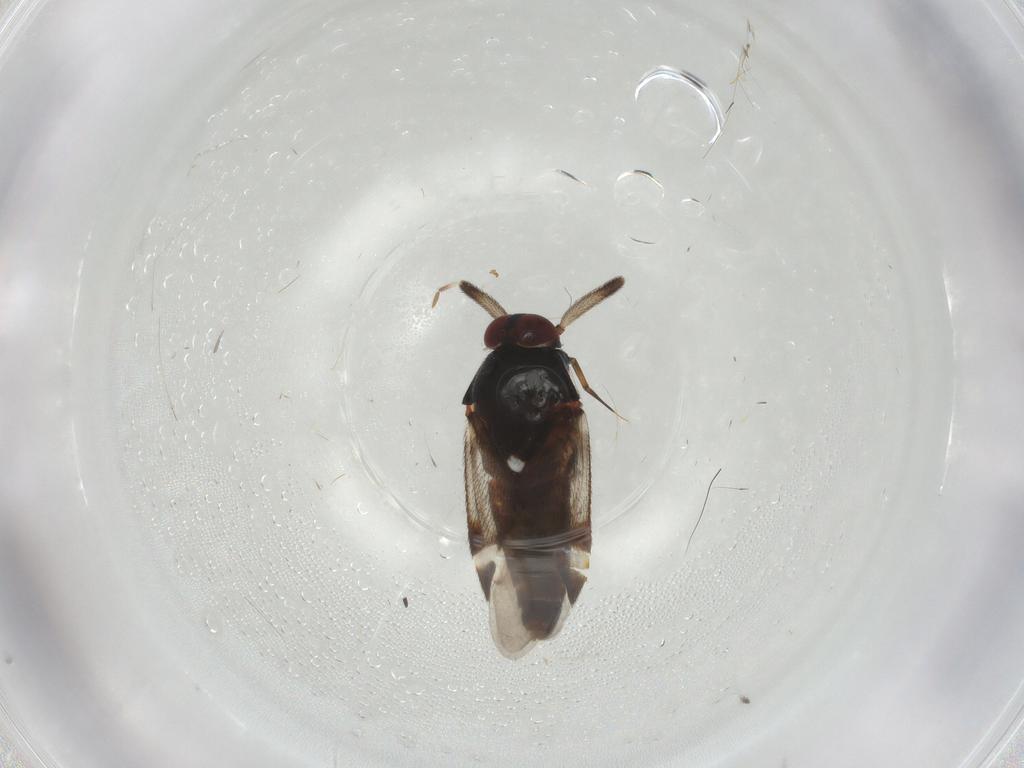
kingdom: Animalia
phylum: Arthropoda
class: Insecta
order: Hemiptera
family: Miridae
